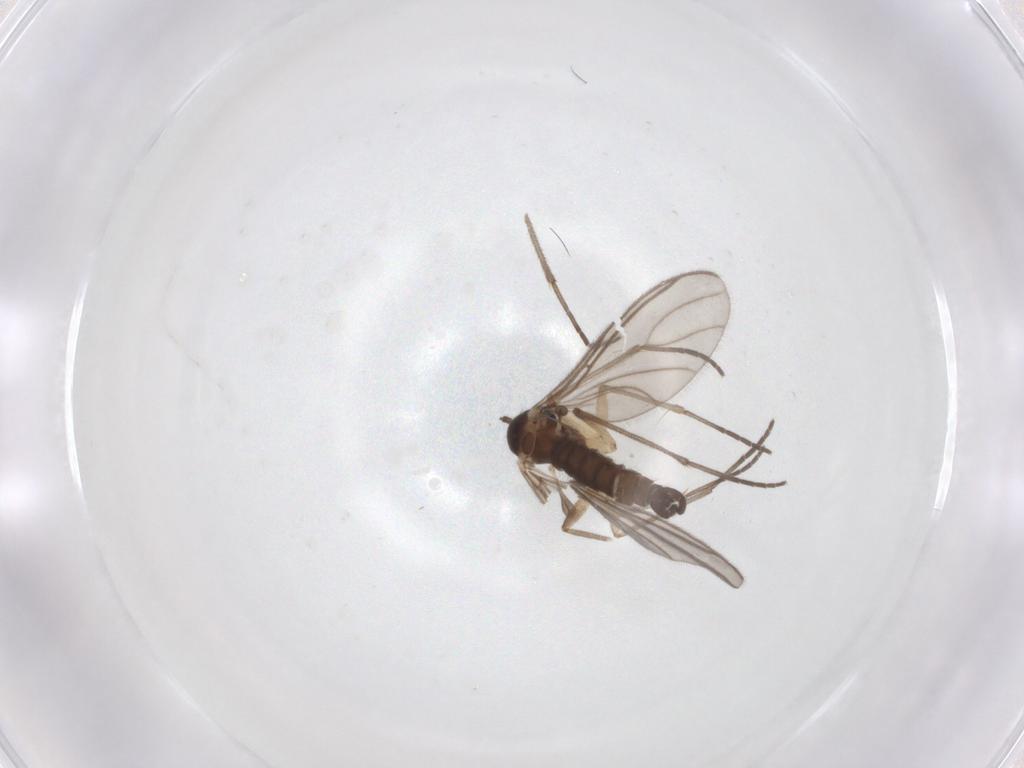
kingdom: Animalia
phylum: Arthropoda
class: Insecta
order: Diptera
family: Sciaridae
